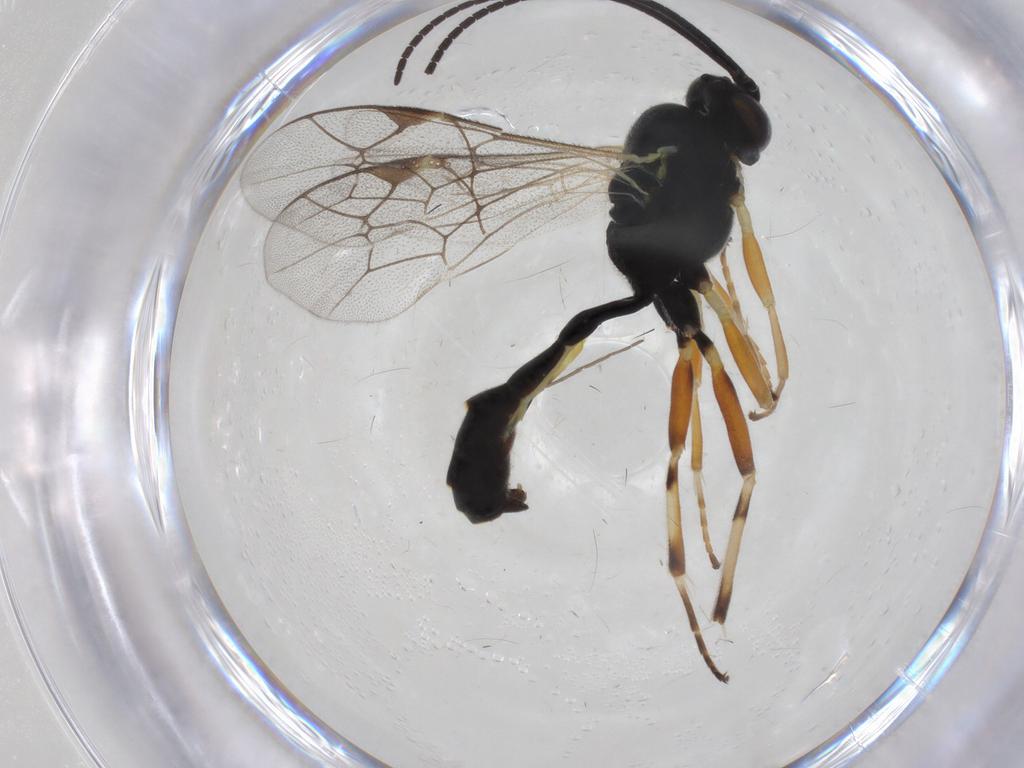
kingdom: Animalia
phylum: Arthropoda
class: Insecta
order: Hymenoptera
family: Ichneumonidae
